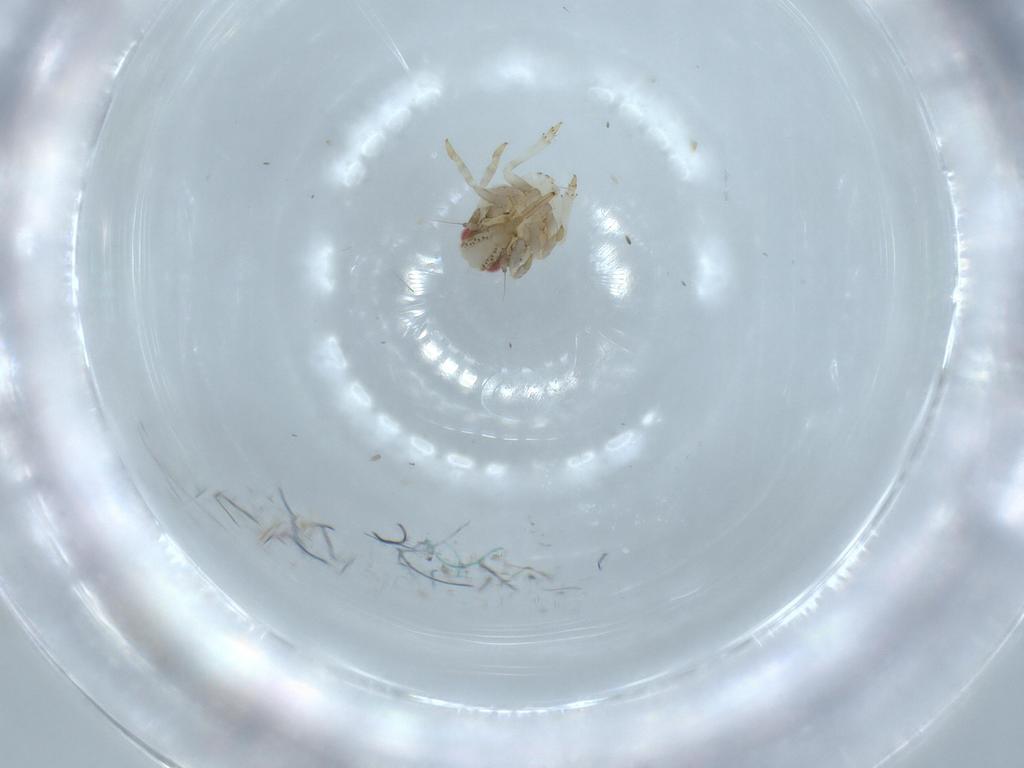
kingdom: Animalia
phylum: Arthropoda
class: Insecta
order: Hemiptera
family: Acanaloniidae
